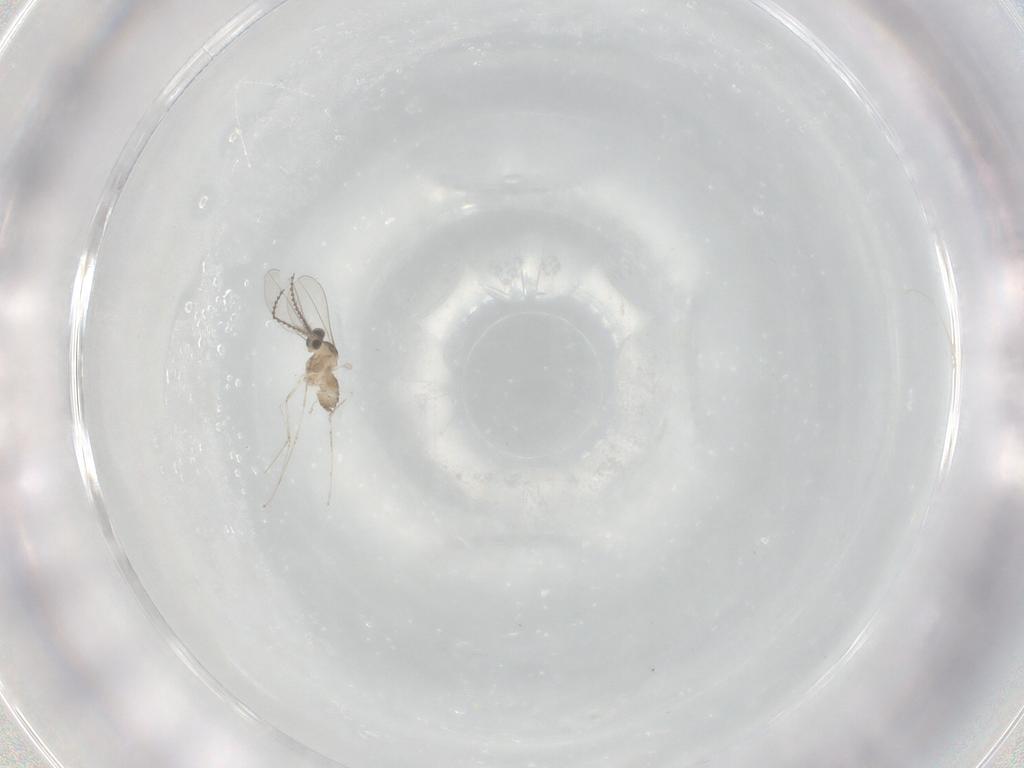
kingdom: Animalia
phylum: Arthropoda
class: Insecta
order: Diptera
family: Cecidomyiidae
